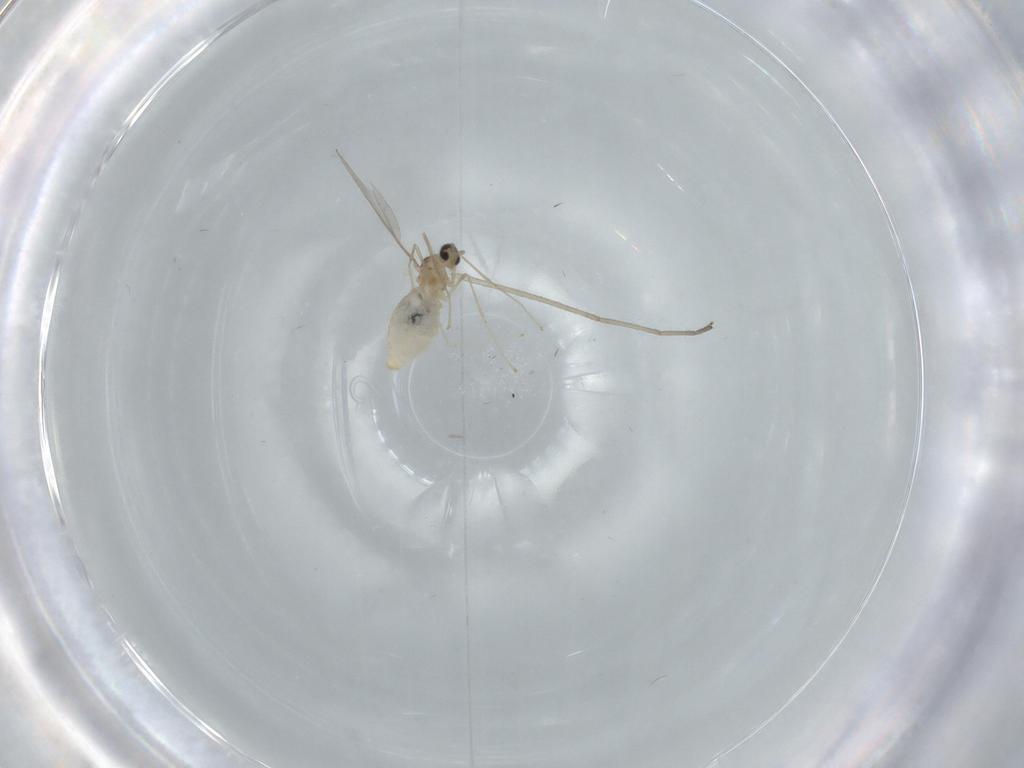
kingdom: Animalia
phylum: Arthropoda
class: Insecta
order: Diptera
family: Cecidomyiidae
